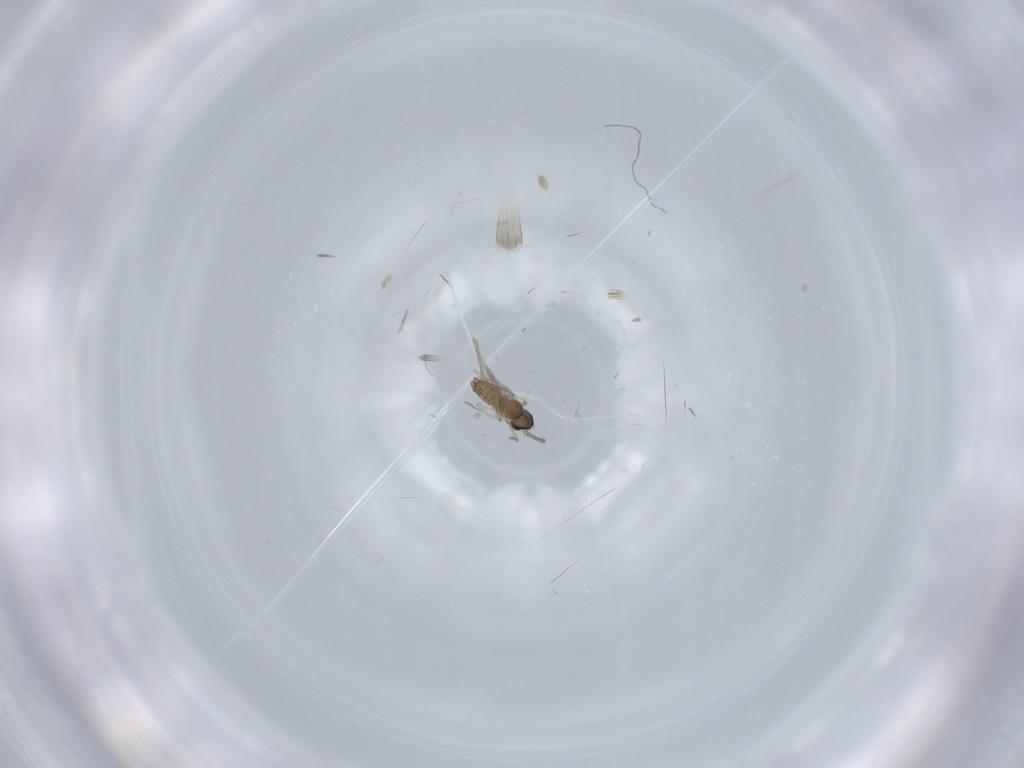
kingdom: Animalia
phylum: Arthropoda
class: Insecta
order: Diptera
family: Cecidomyiidae
